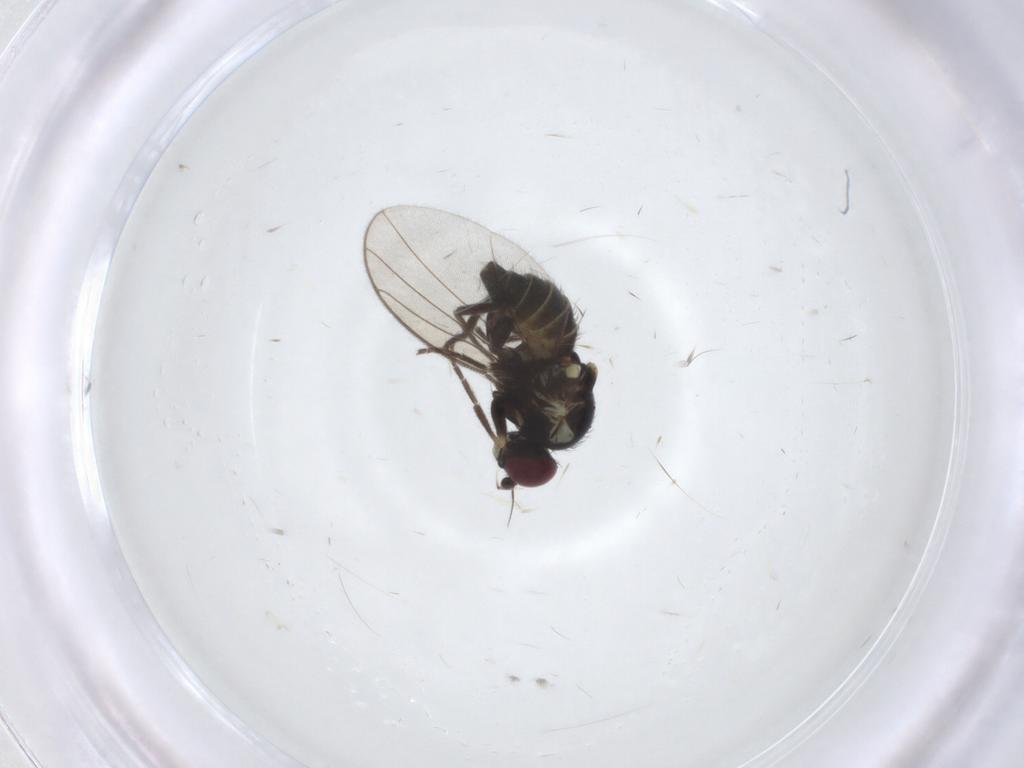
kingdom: Animalia
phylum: Arthropoda
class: Insecta
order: Diptera
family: Agromyzidae
